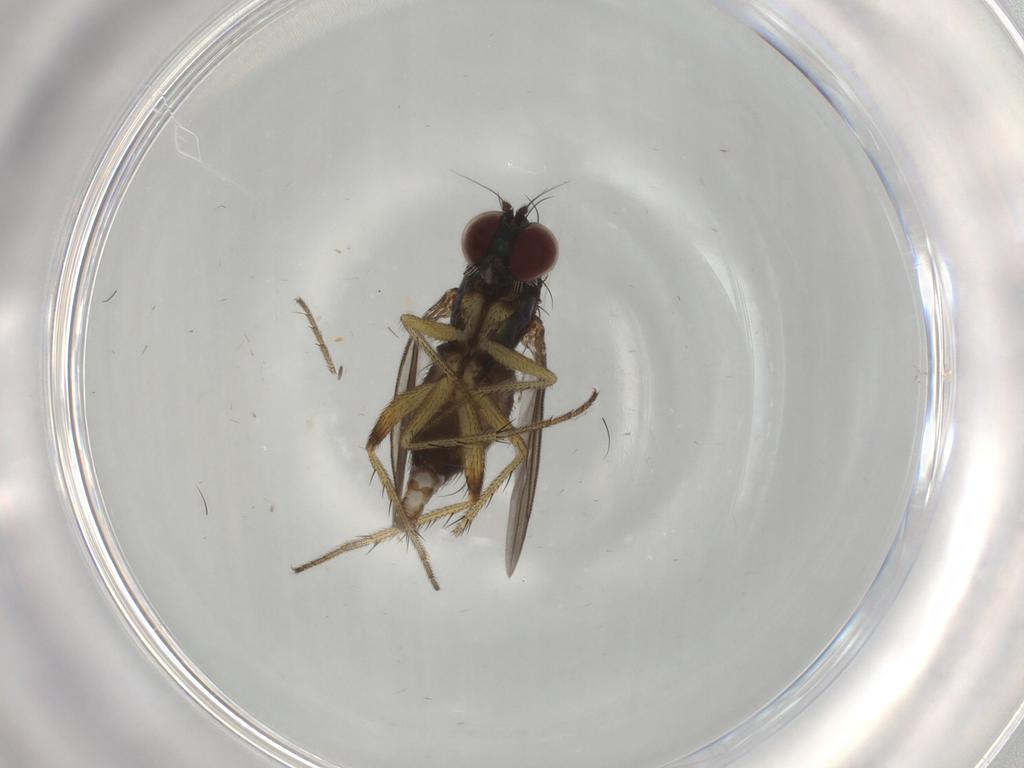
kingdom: Animalia
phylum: Arthropoda
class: Insecta
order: Diptera
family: Dolichopodidae
